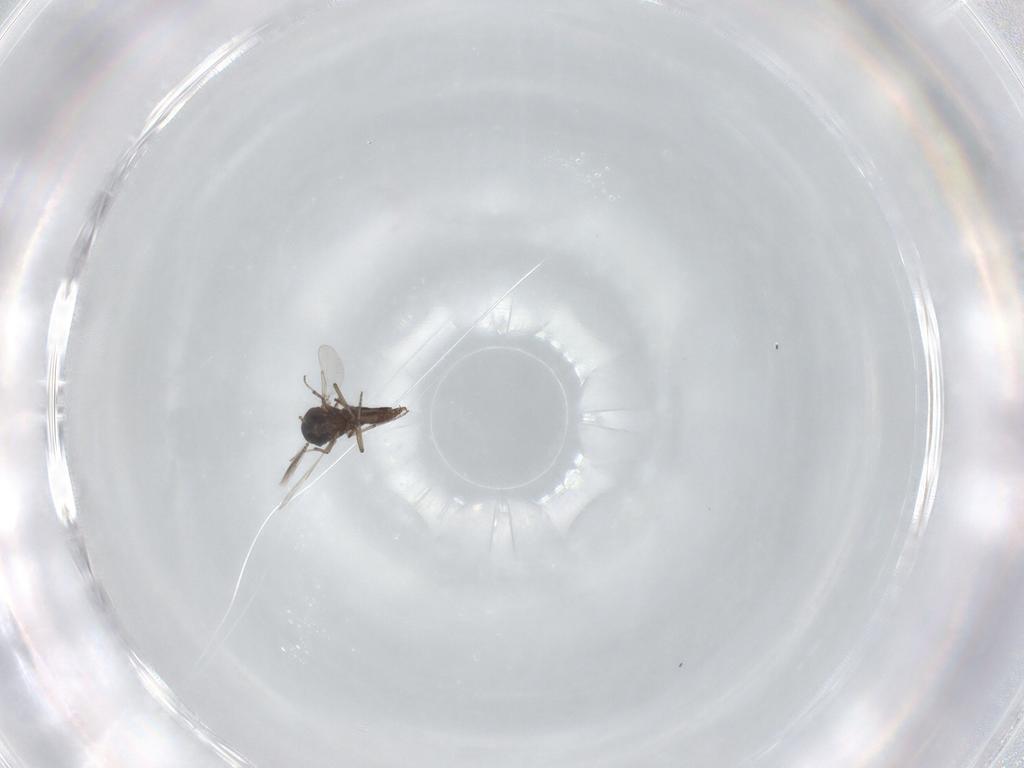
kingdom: Animalia
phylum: Arthropoda
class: Insecta
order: Diptera
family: Ceratopogonidae
